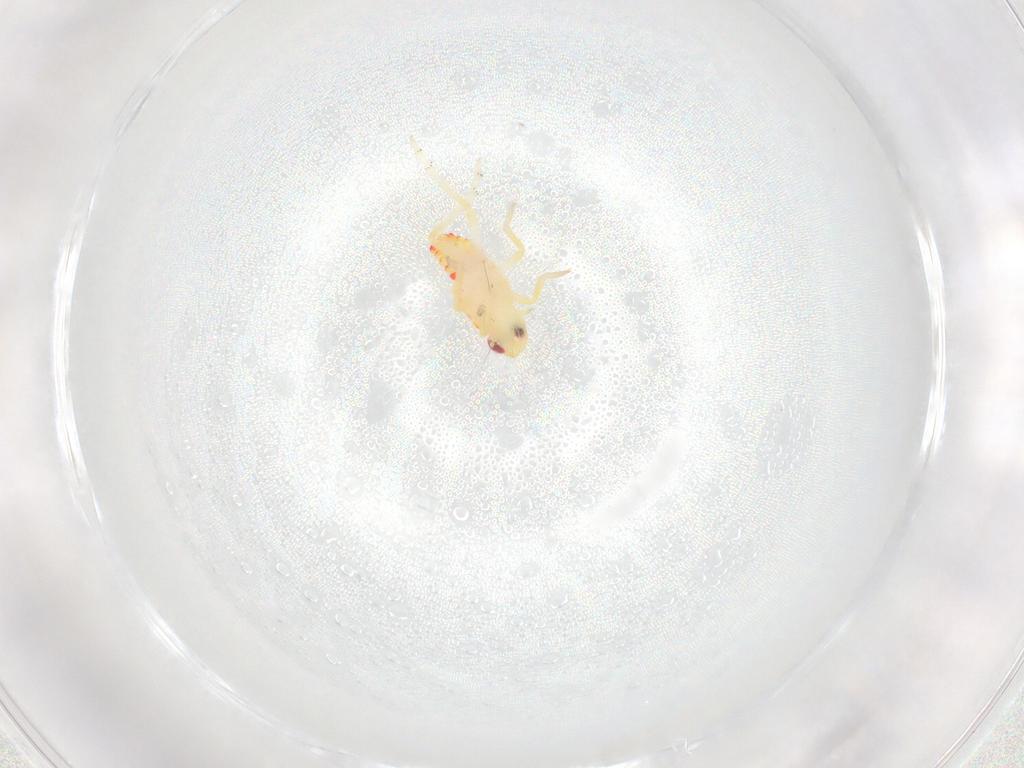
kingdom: Animalia
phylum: Arthropoda
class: Insecta
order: Hemiptera
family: Tropiduchidae
